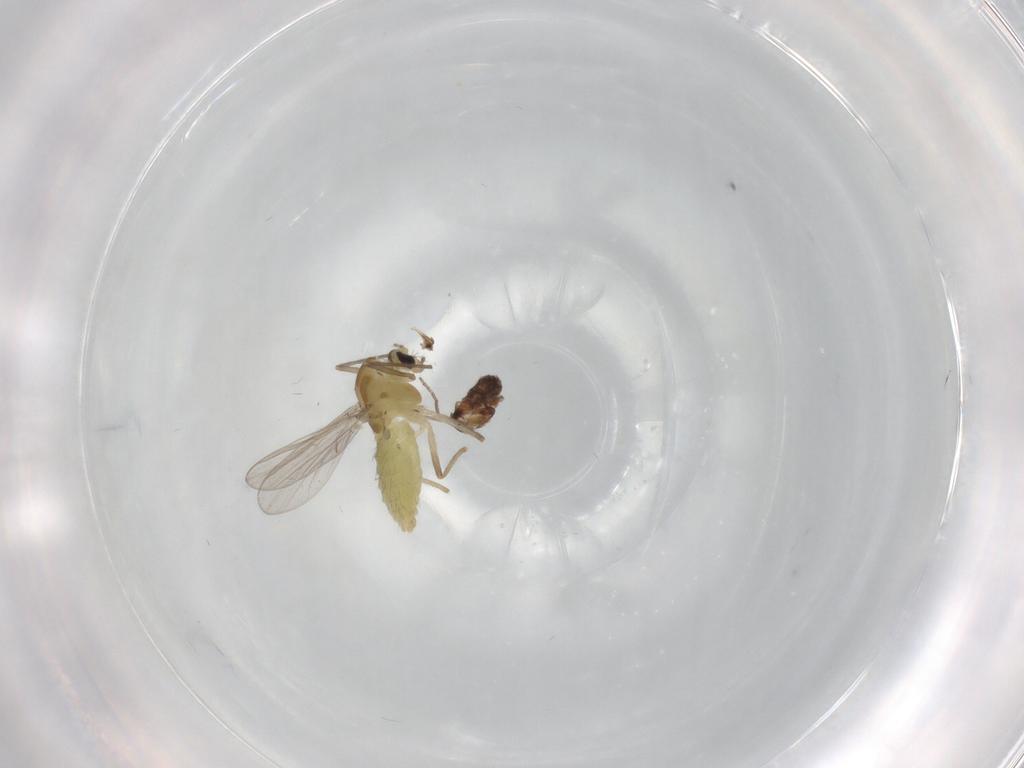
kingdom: Animalia
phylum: Arthropoda
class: Insecta
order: Diptera
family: Chironomidae
